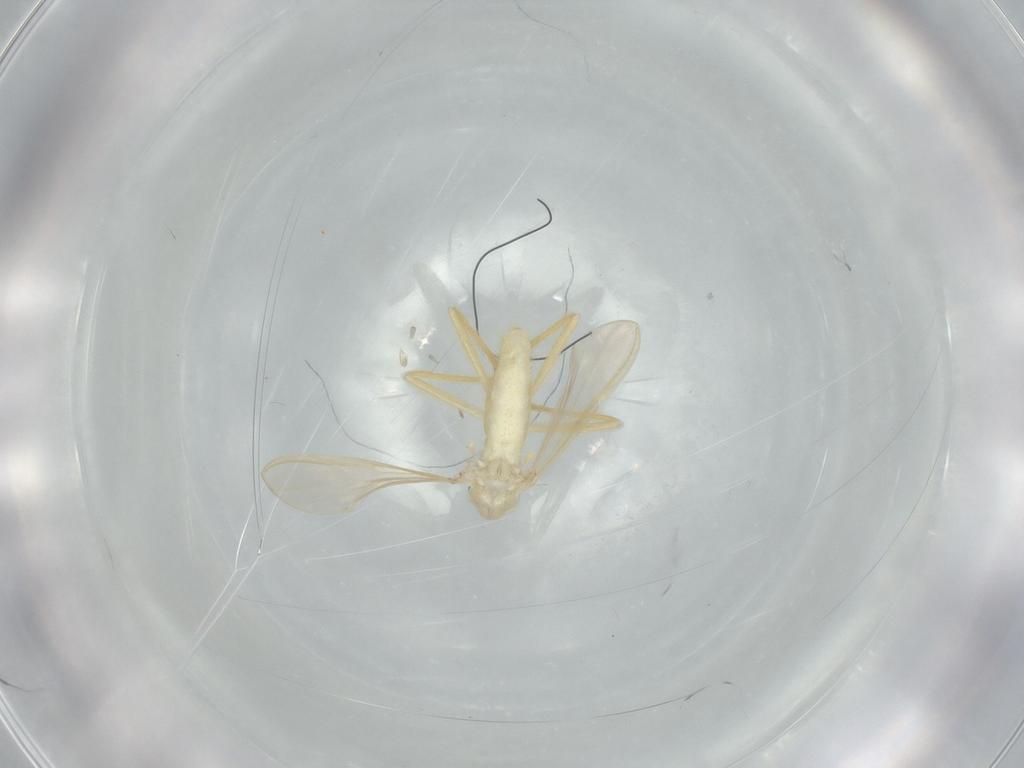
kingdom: Animalia
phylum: Arthropoda
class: Insecta
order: Diptera
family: Chironomidae
